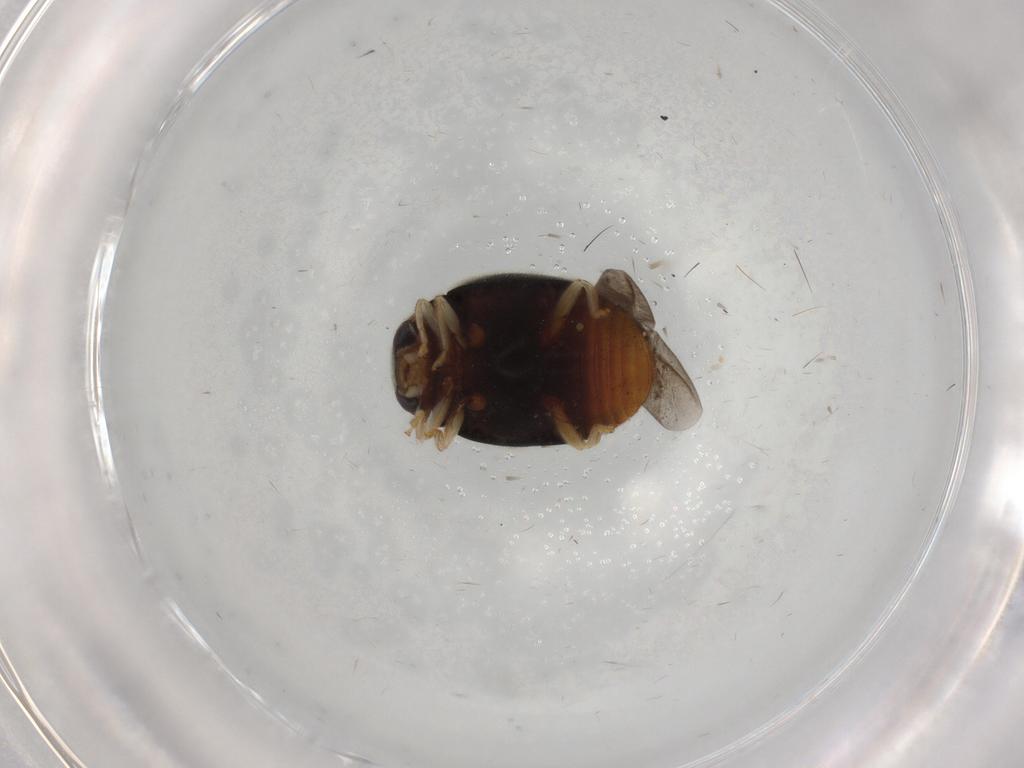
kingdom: Animalia
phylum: Arthropoda
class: Insecta
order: Coleoptera
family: Coccinellidae
